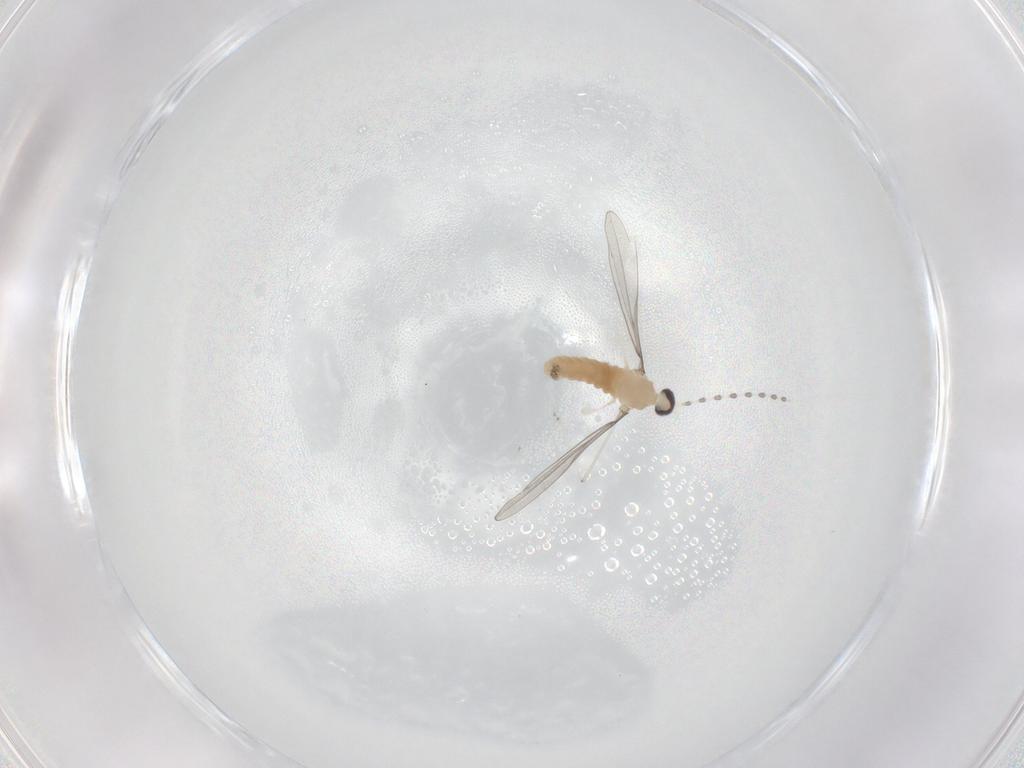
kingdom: Animalia
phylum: Arthropoda
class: Insecta
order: Diptera
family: Cecidomyiidae
